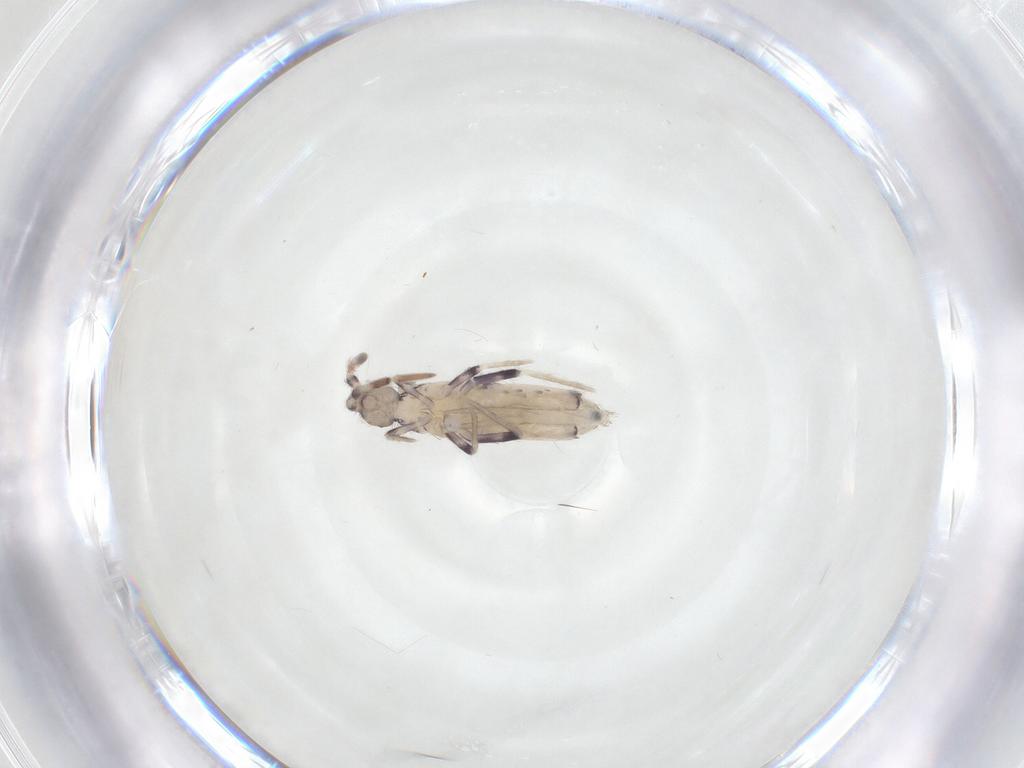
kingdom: Animalia
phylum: Arthropoda
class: Collembola
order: Entomobryomorpha
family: Entomobryidae
